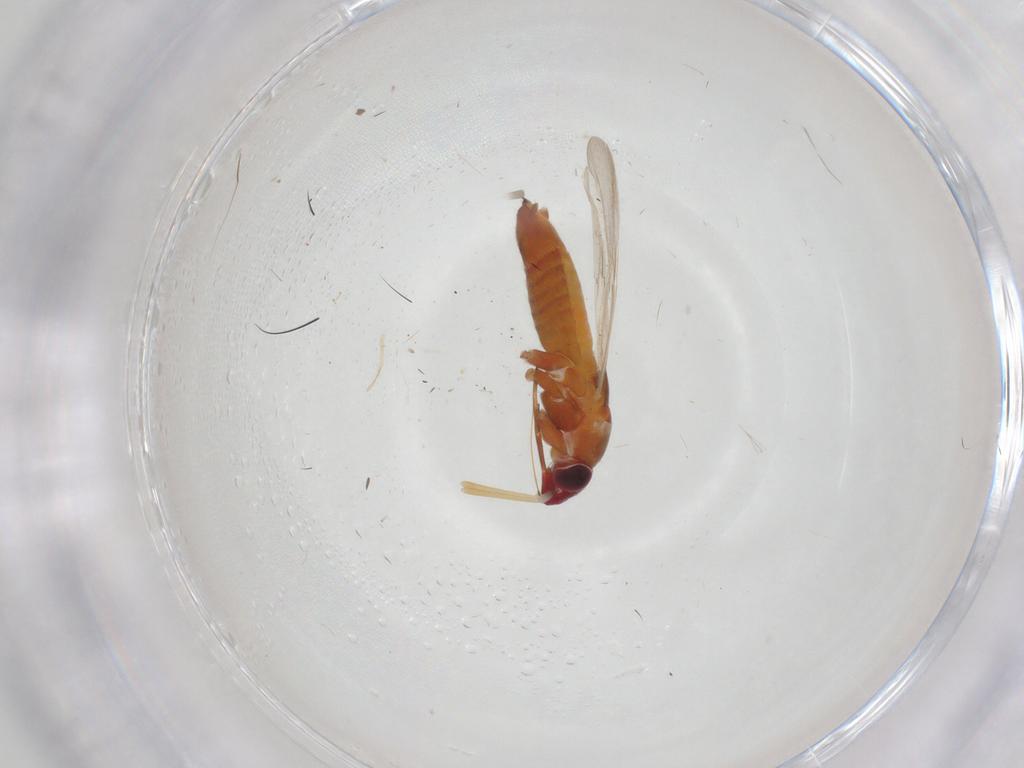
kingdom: Animalia
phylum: Arthropoda
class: Insecta
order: Hemiptera
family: Miridae
